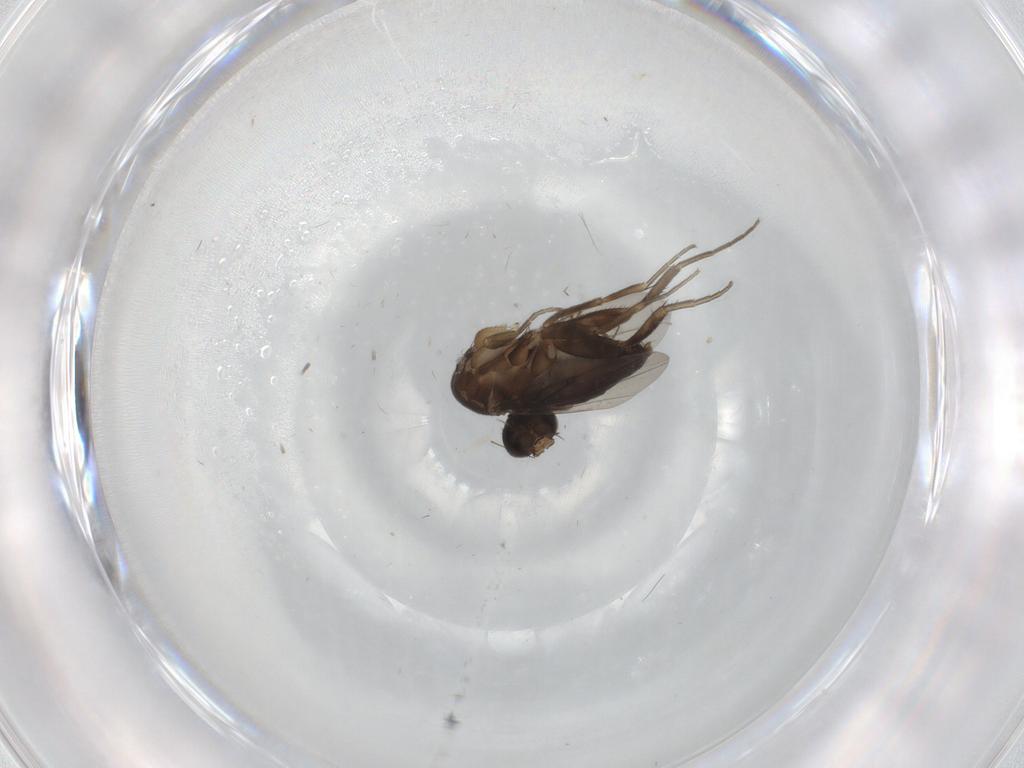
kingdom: Animalia
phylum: Arthropoda
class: Insecta
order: Diptera
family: Phoridae
